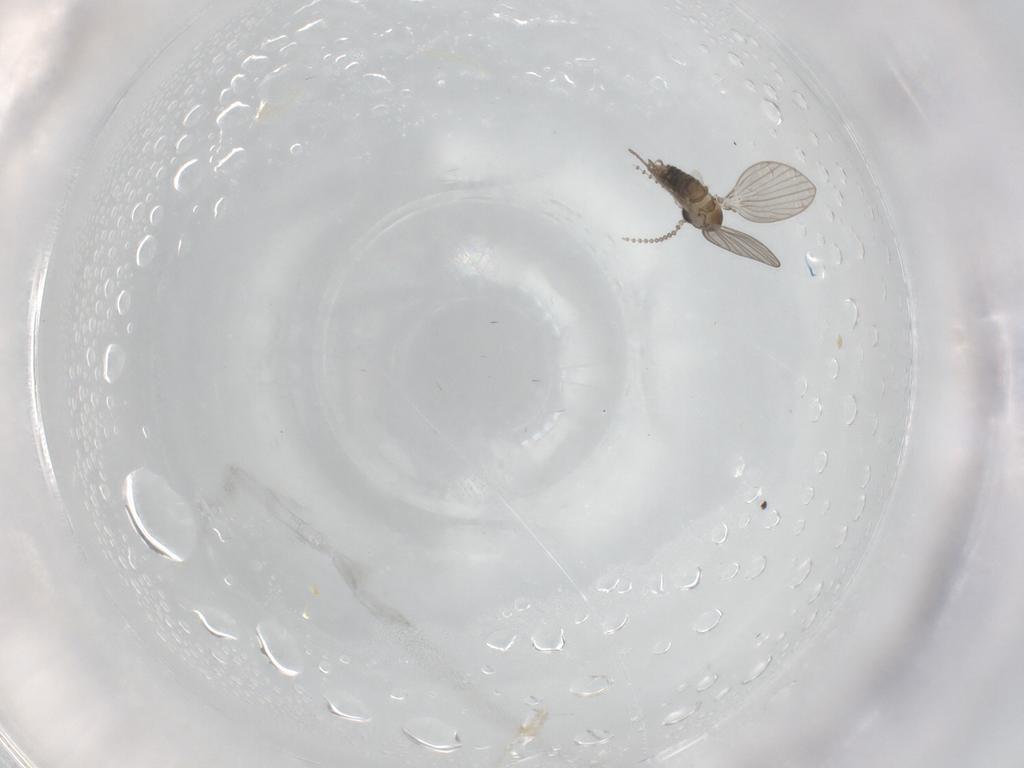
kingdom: Animalia
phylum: Arthropoda
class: Insecta
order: Diptera
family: Psychodidae
